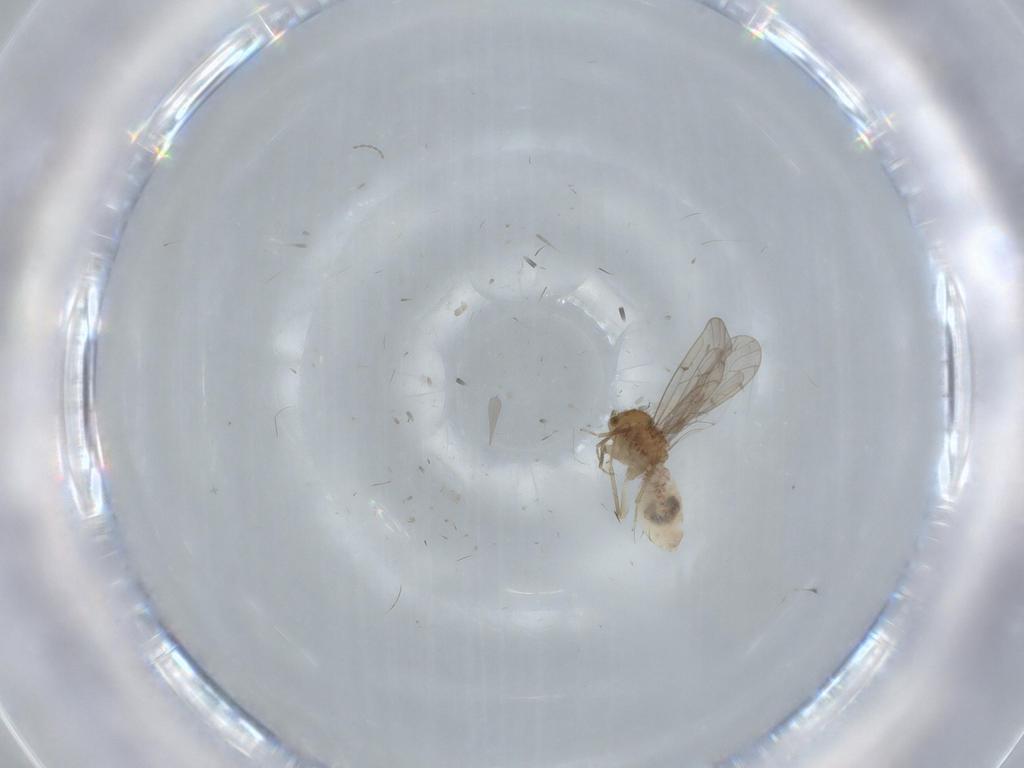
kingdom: Animalia
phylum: Arthropoda
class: Insecta
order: Psocodea
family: Ectopsocidae
